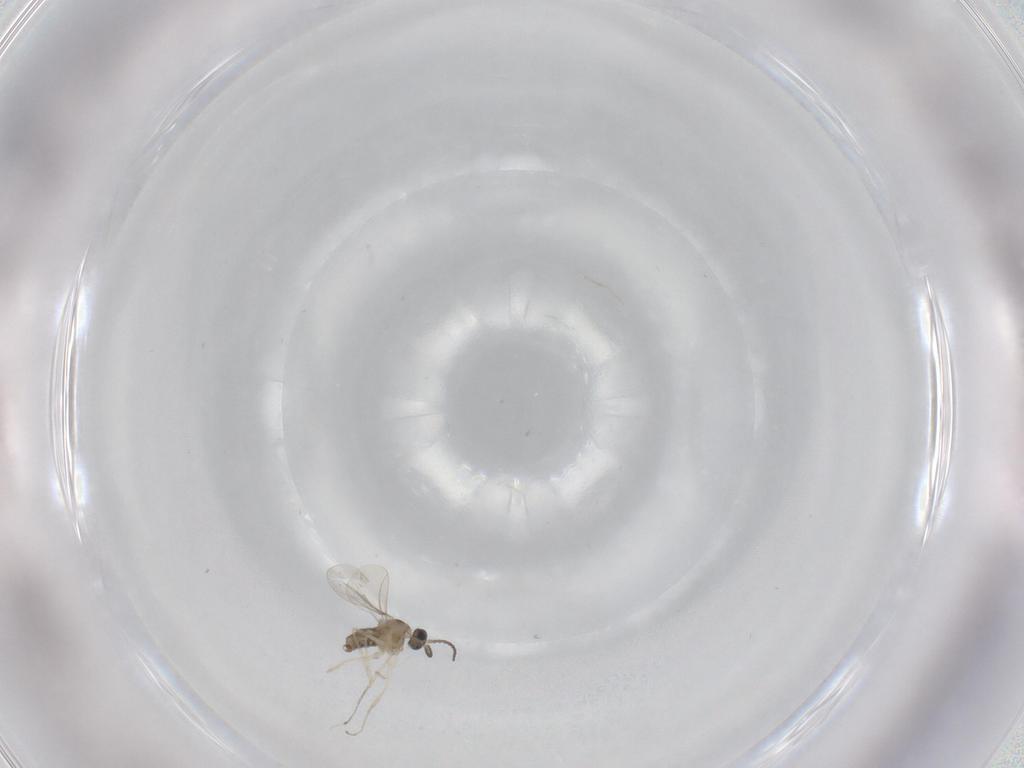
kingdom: Animalia
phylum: Arthropoda
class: Insecta
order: Diptera
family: Cecidomyiidae
